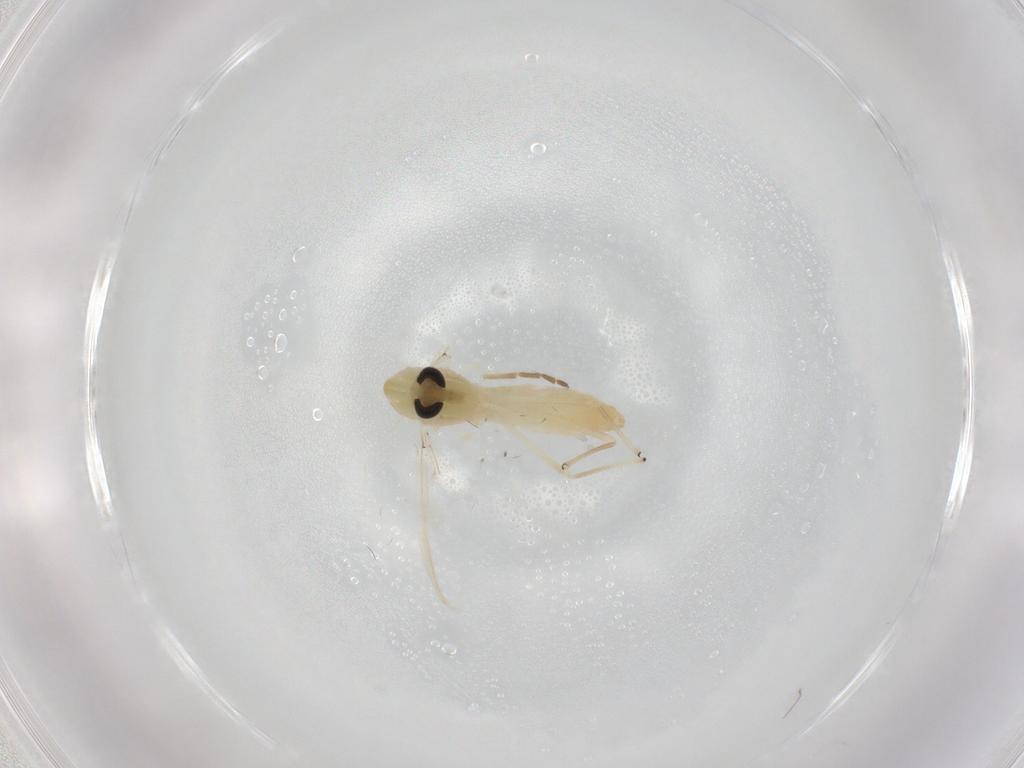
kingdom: Animalia
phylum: Arthropoda
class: Insecta
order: Diptera
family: Chironomidae
